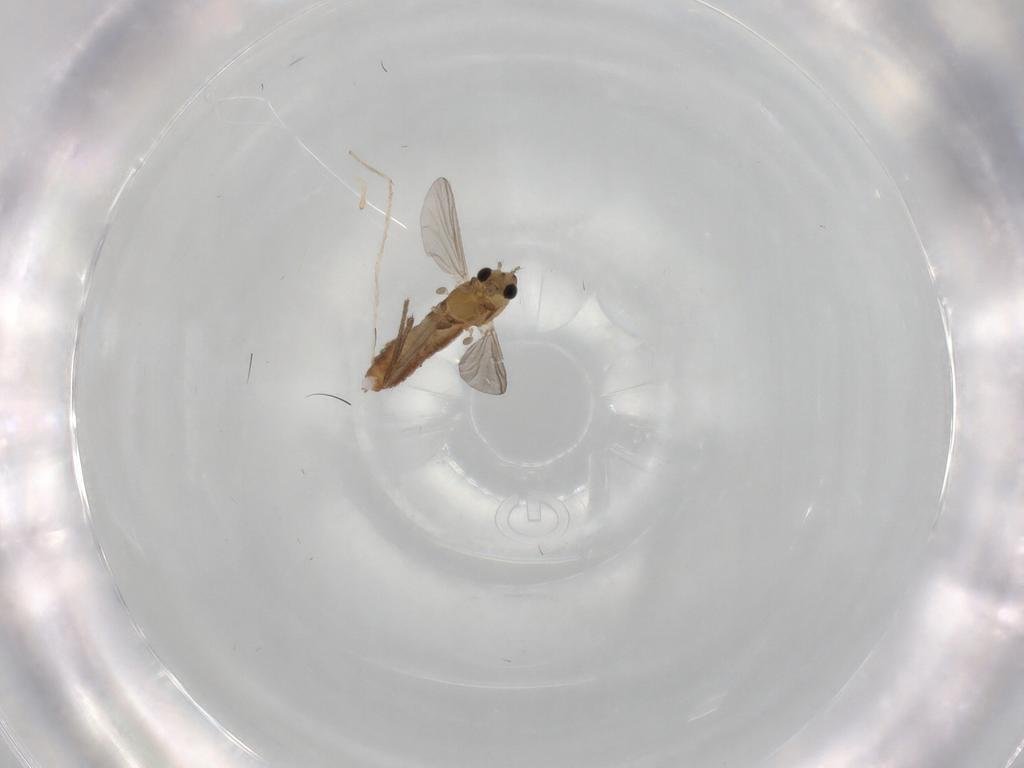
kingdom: Animalia
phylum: Arthropoda
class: Insecta
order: Diptera
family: Chironomidae
